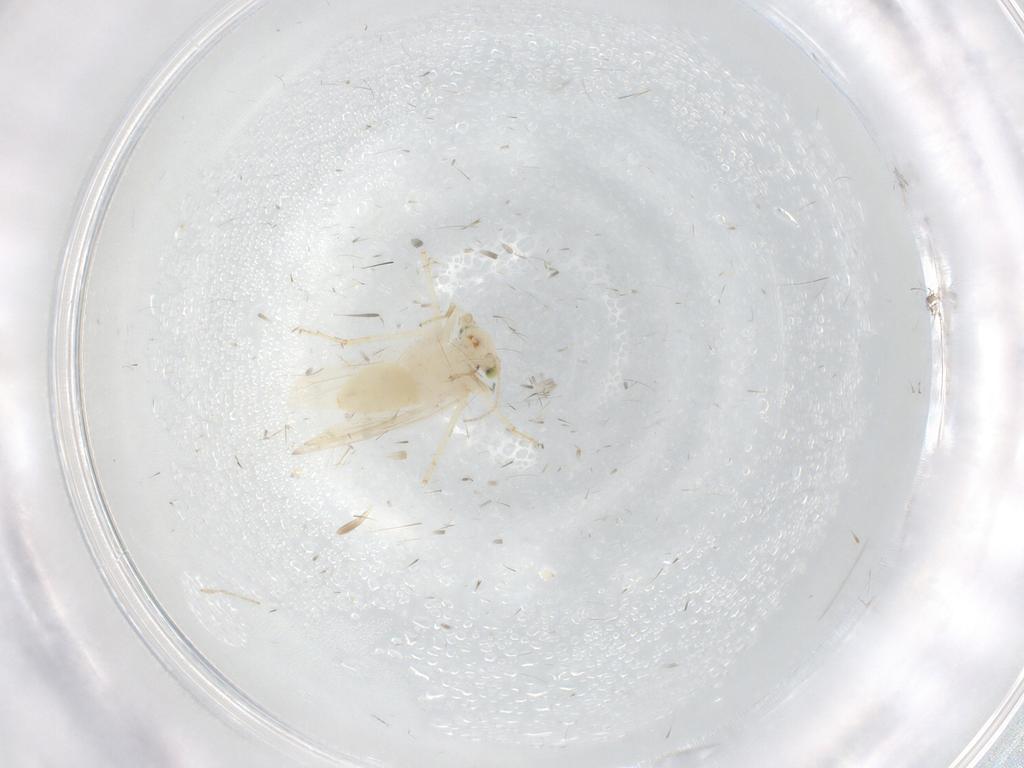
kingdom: Animalia
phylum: Arthropoda
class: Insecta
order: Psocodea
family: Lepidopsocidae
